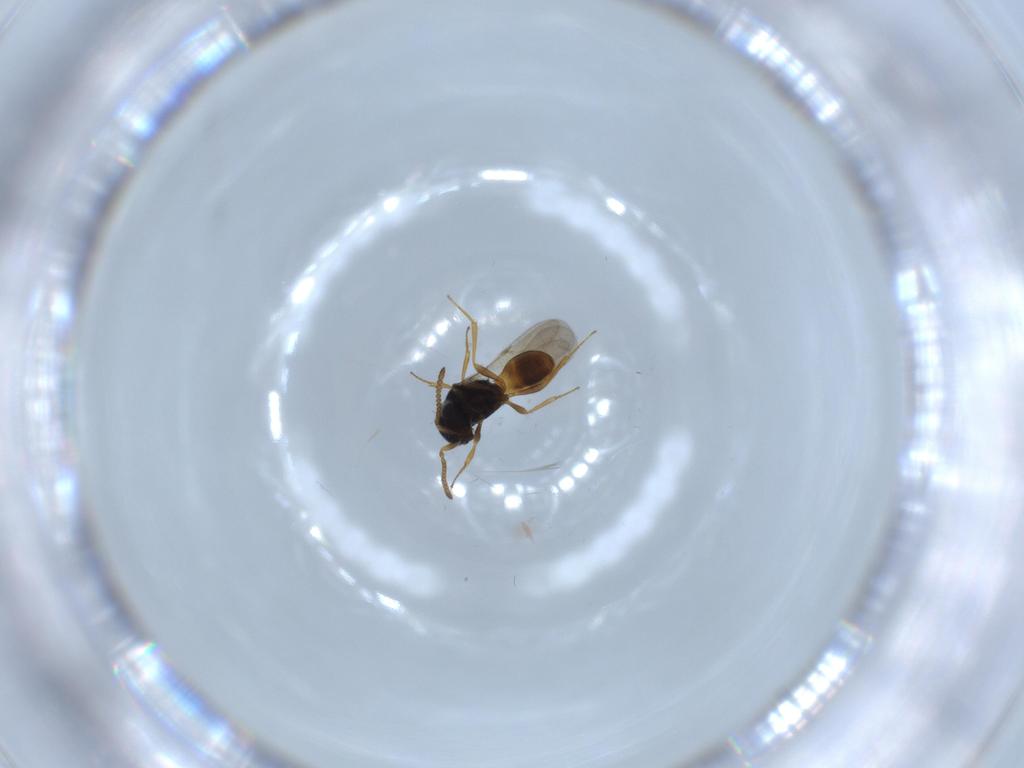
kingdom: Animalia
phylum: Arthropoda
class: Insecta
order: Hymenoptera
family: Scelionidae
